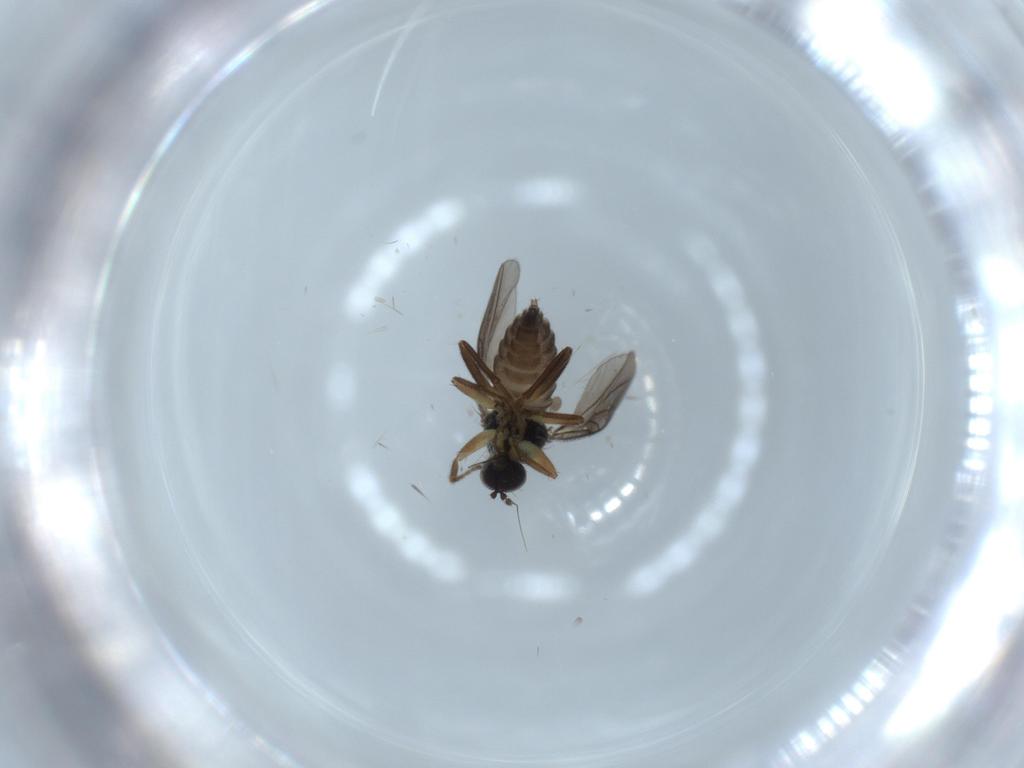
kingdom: Animalia
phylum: Arthropoda
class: Insecta
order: Diptera
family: Hybotidae
